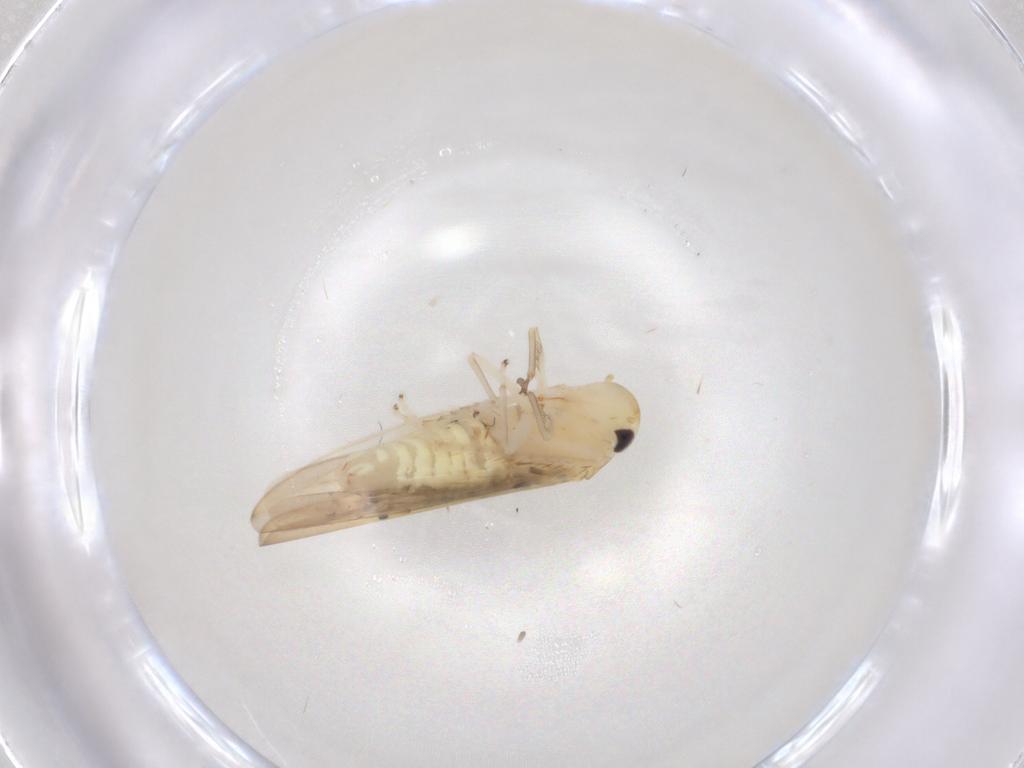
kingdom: Animalia
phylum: Arthropoda
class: Insecta
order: Hemiptera
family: Cicadellidae
